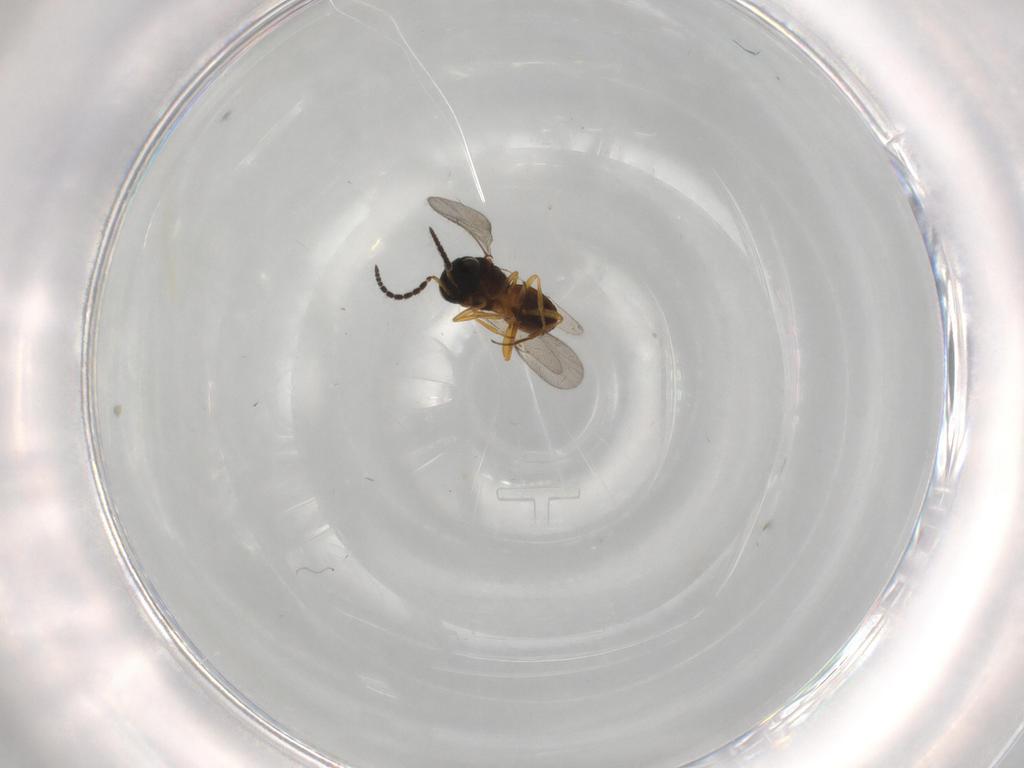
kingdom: Animalia
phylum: Arthropoda
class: Insecta
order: Coleoptera
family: Curculionidae
